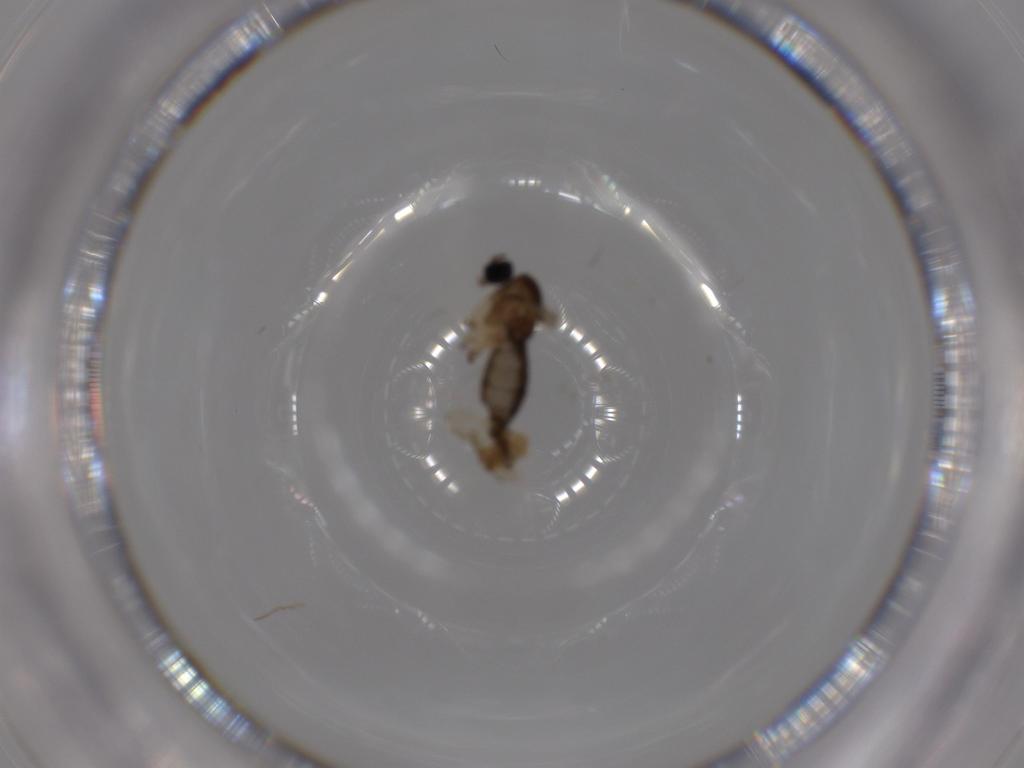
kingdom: Animalia
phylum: Arthropoda
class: Insecta
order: Diptera
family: Sciaridae
